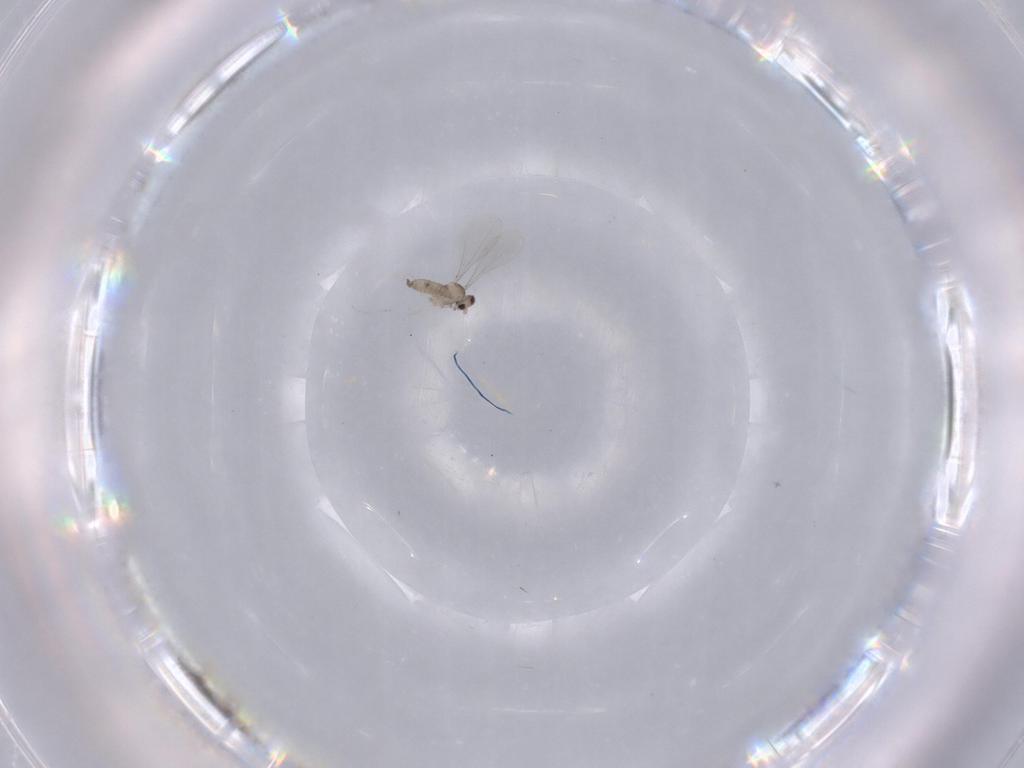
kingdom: Animalia
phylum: Arthropoda
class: Insecta
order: Diptera
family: Cecidomyiidae
